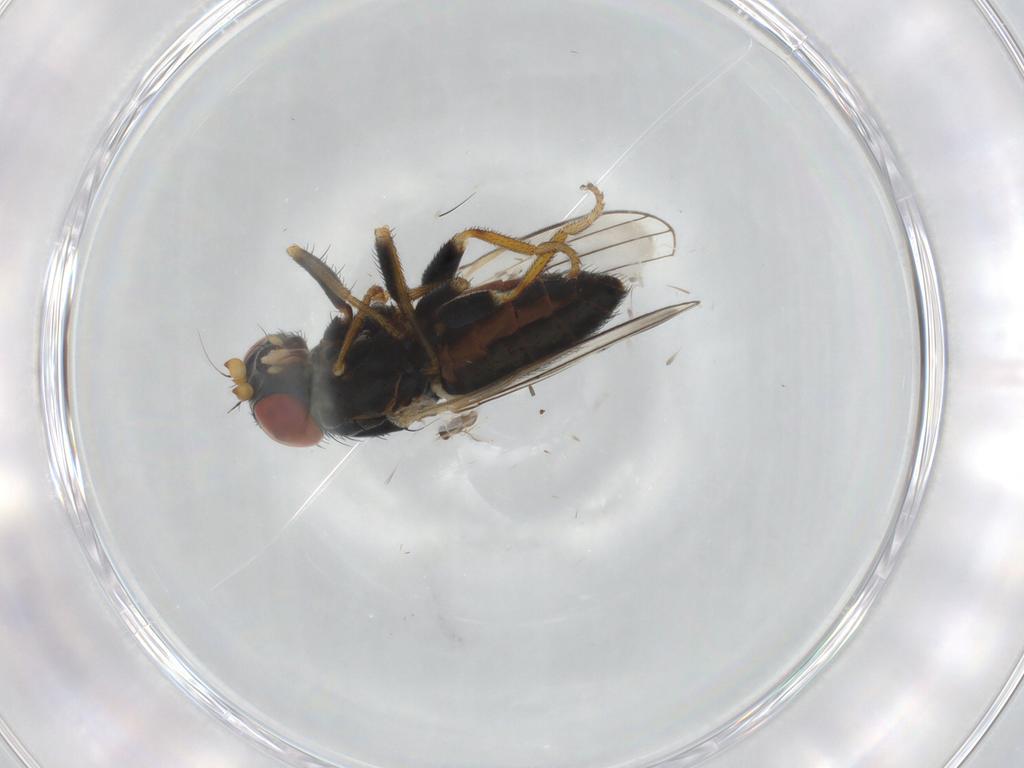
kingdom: Animalia
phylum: Arthropoda
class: Insecta
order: Diptera
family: Chamaemyiidae
